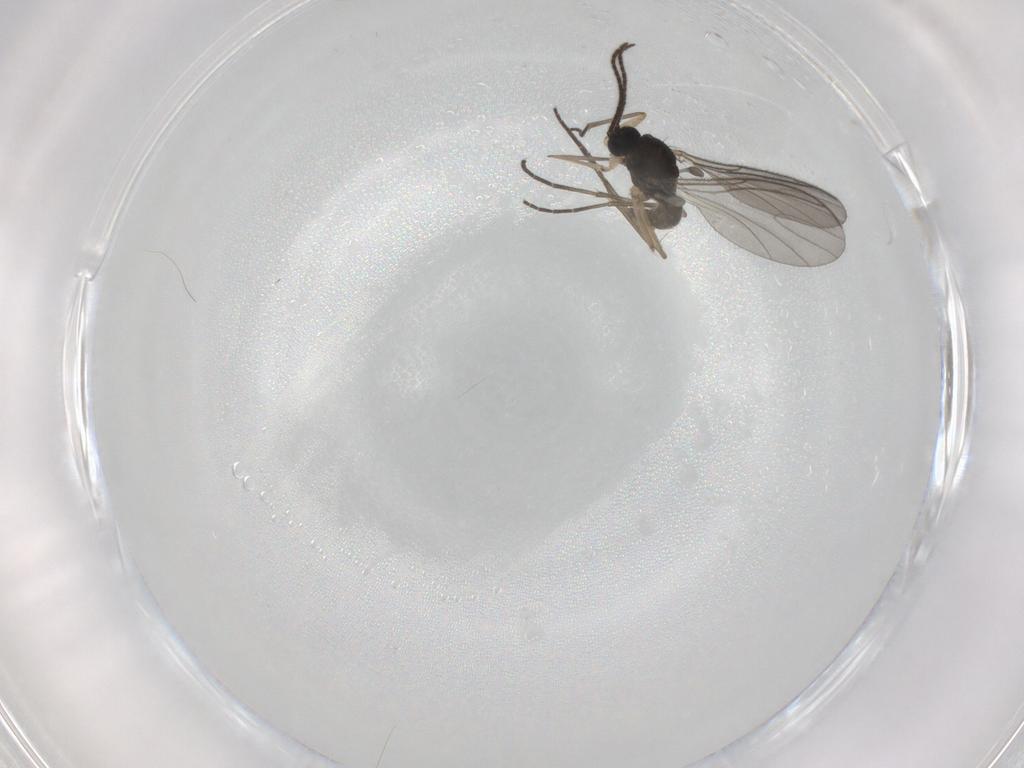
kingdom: Animalia
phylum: Arthropoda
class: Insecta
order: Diptera
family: Sciaridae
